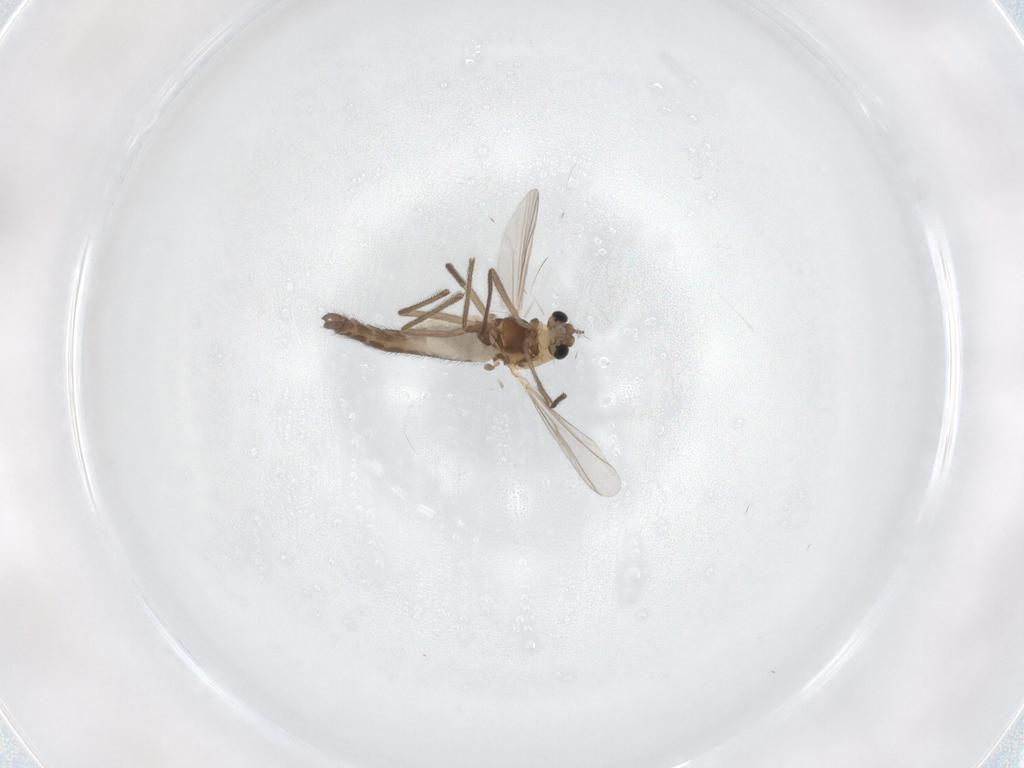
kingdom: Animalia
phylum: Arthropoda
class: Insecta
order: Diptera
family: Chironomidae
